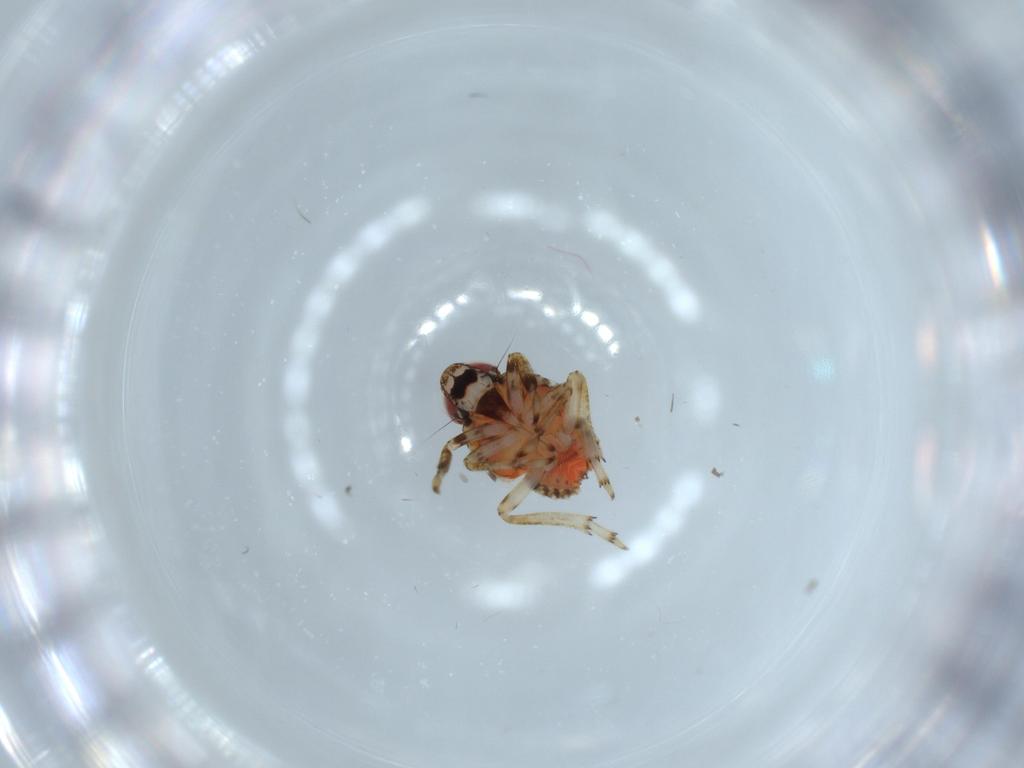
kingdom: Animalia
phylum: Arthropoda
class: Insecta
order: Hemiptera
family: Issidae
